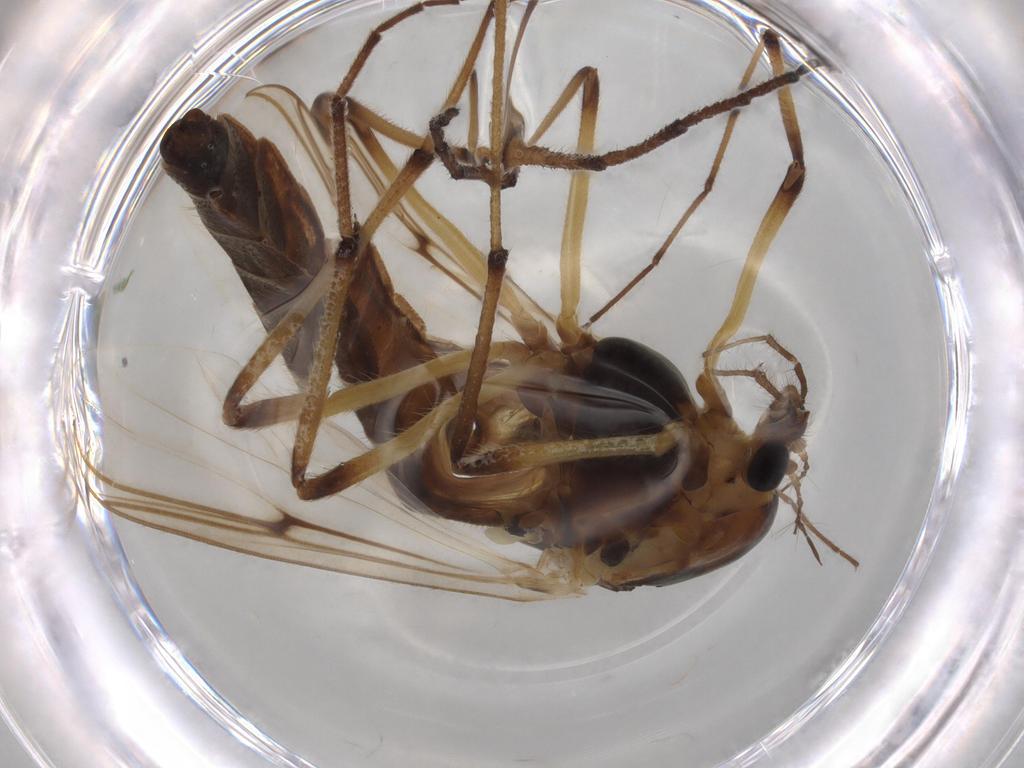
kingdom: Animalia
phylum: Arthropoda
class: Insecta
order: Diptera
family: Chironomidae
